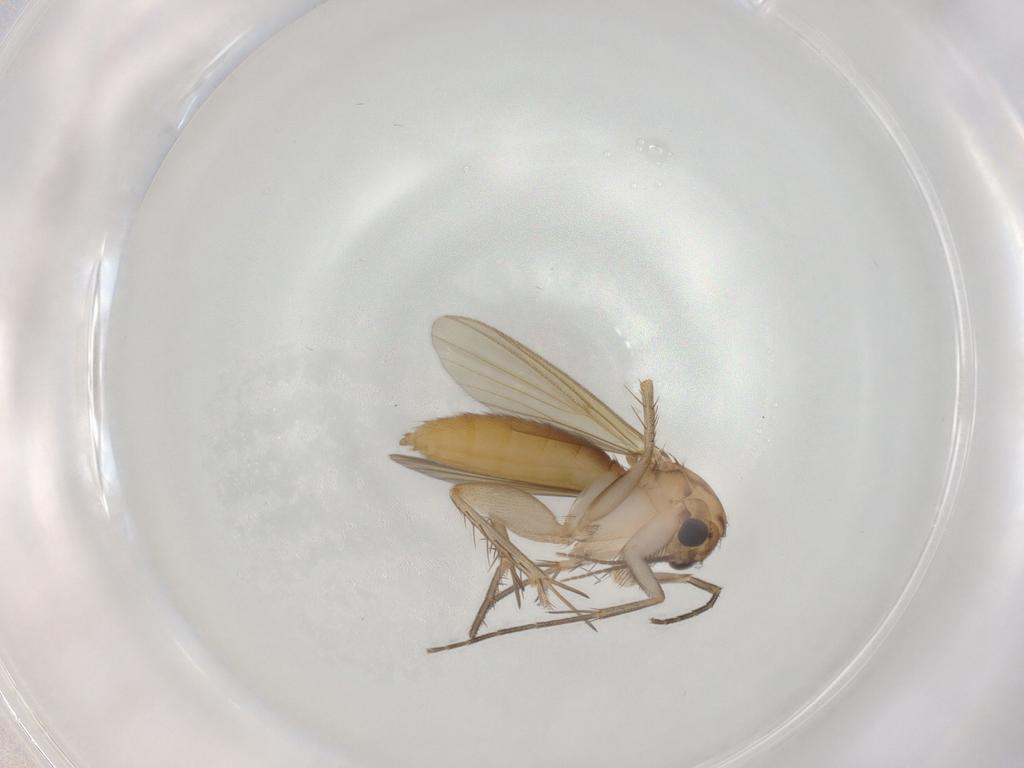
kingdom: Animalia
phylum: Arthropoda
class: Insecta
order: Diptera
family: Mycetophilidae
